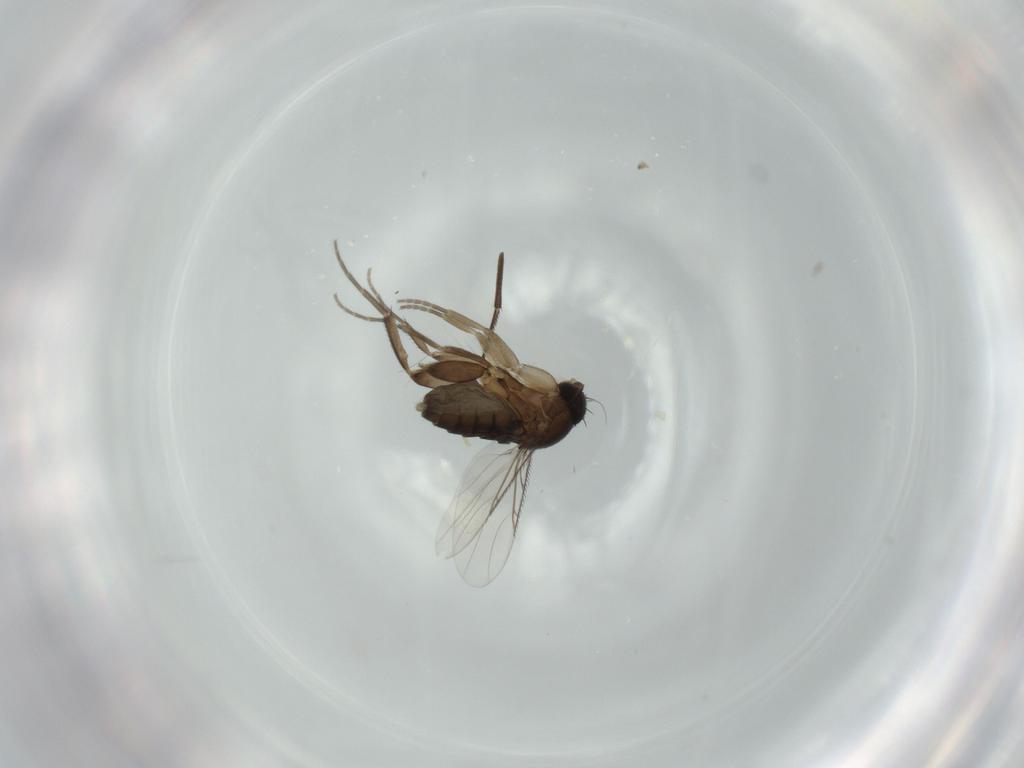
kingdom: Animalia
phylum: Arthropoda
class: Insecta
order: Diptera
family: Phoridae
